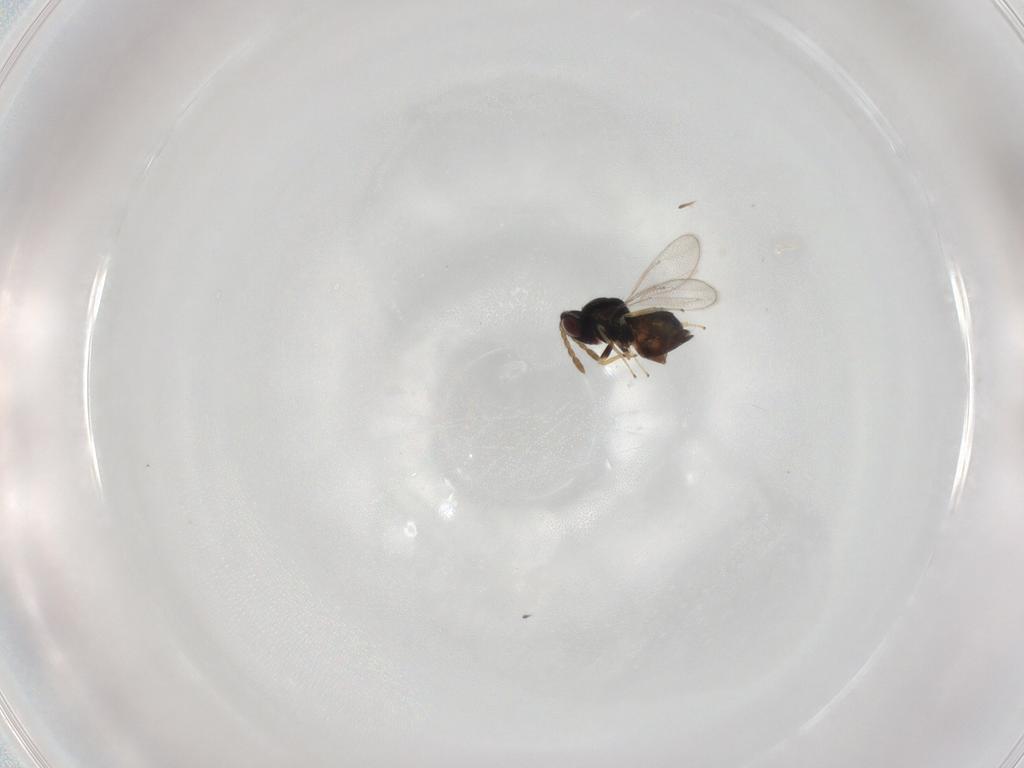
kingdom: Animalia
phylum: Arthropoda
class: Insecta
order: Hymenoptera
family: Eulophidae
